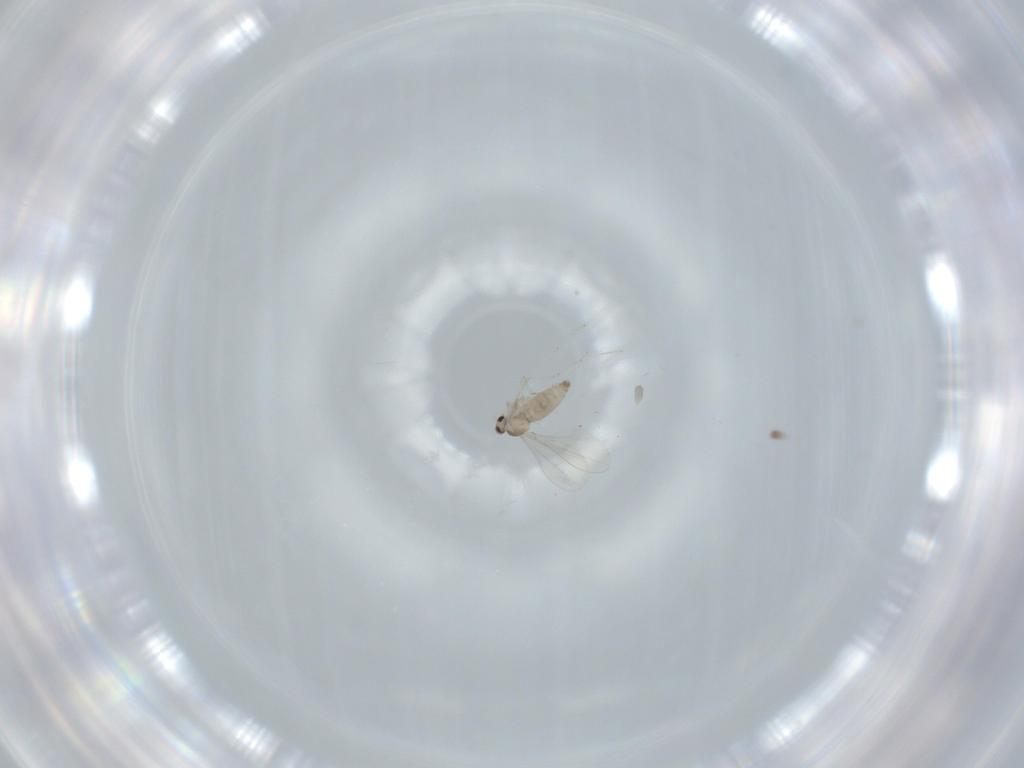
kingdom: Animalia
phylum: Arthropoda
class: Insecta
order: Diptera
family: Cecidomyiidae
